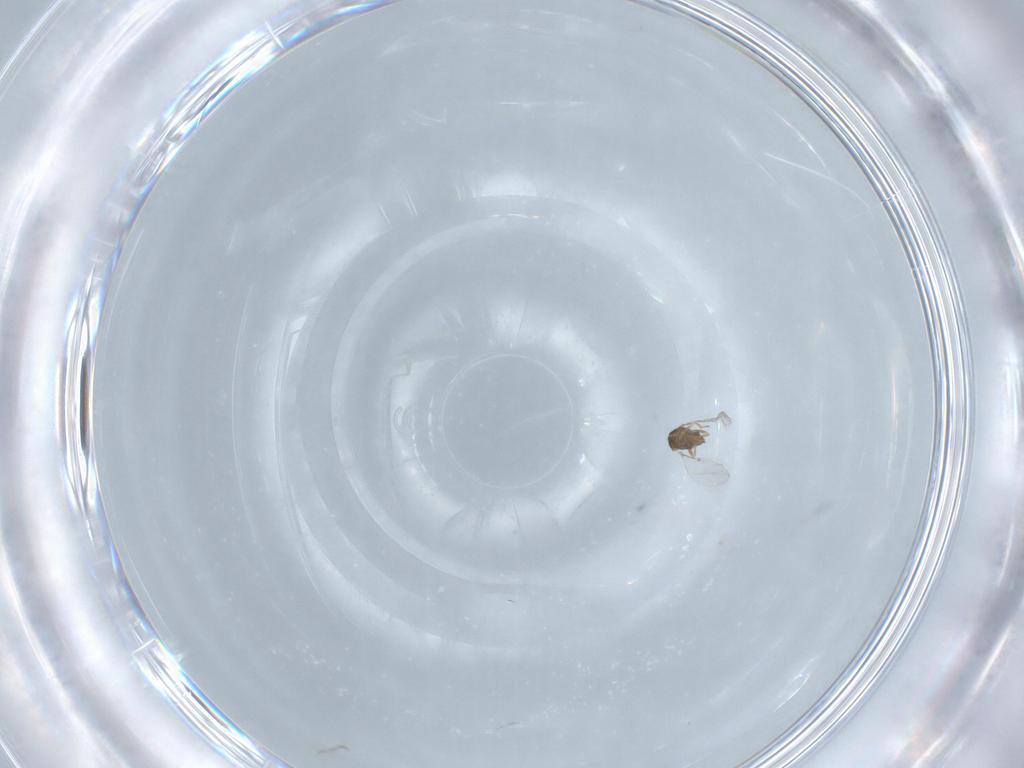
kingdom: Animalia
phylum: Arthropoda
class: Insecta
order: Hymenoptera
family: Encyrtidae
